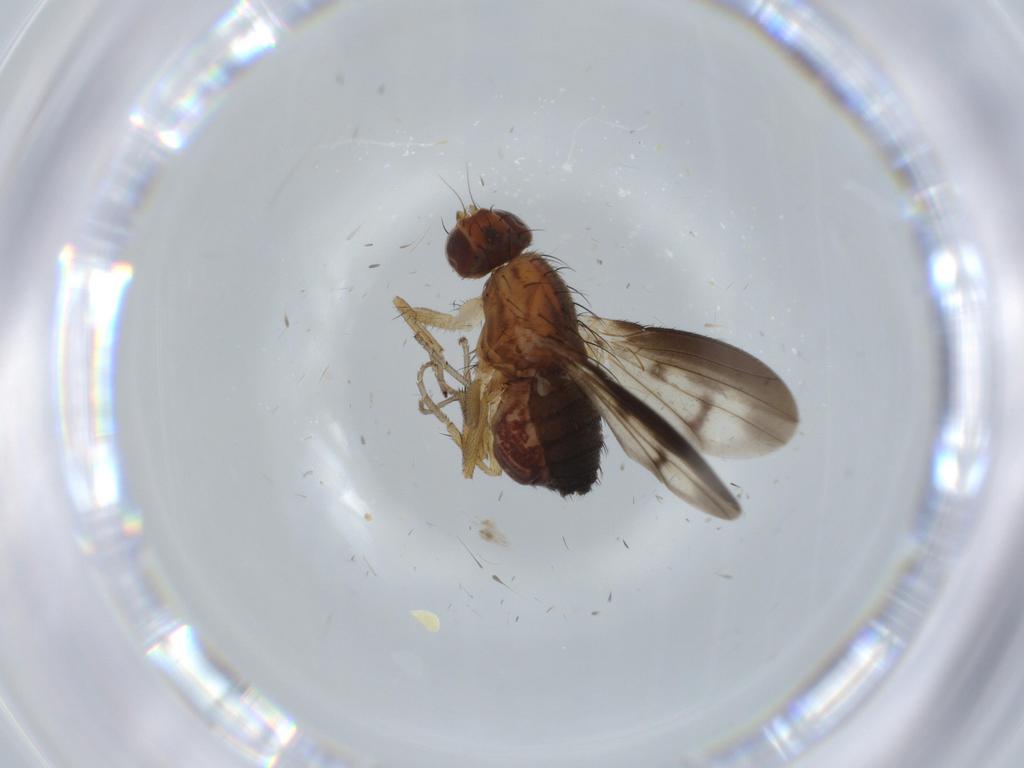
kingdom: Animalia
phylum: Arthropoda
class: Insecta
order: Diptera
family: Heleomyzidae
